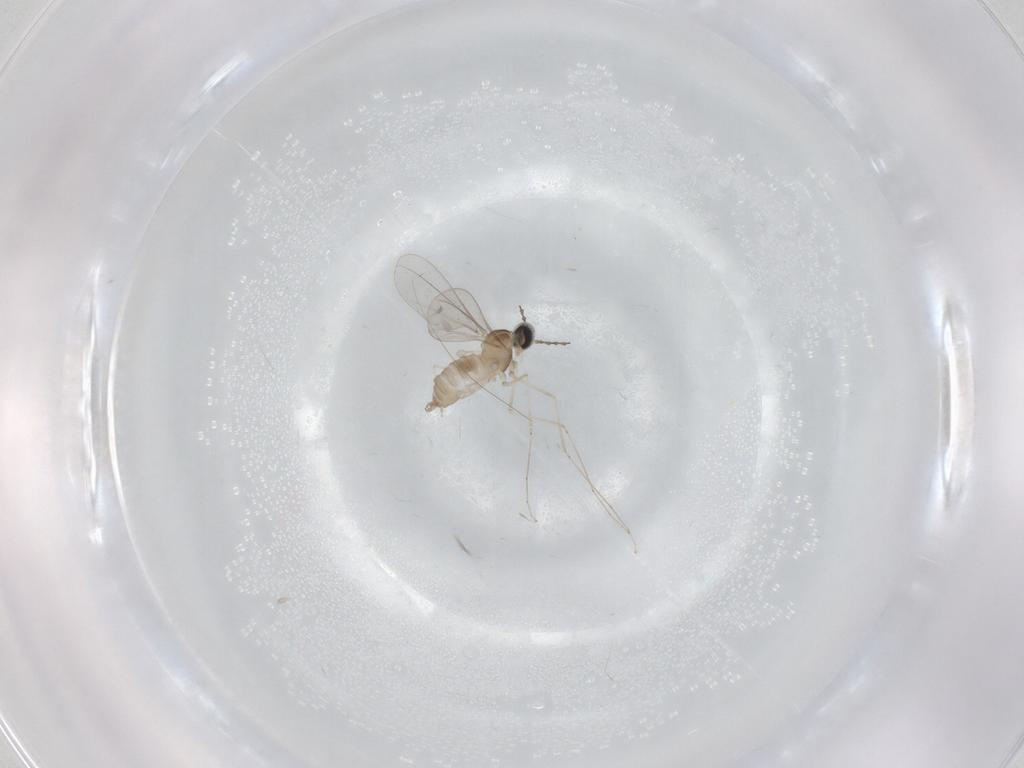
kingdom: Animalia
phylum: Arthropoda
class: Insecta
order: Diptera
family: Cecidomyiidae
